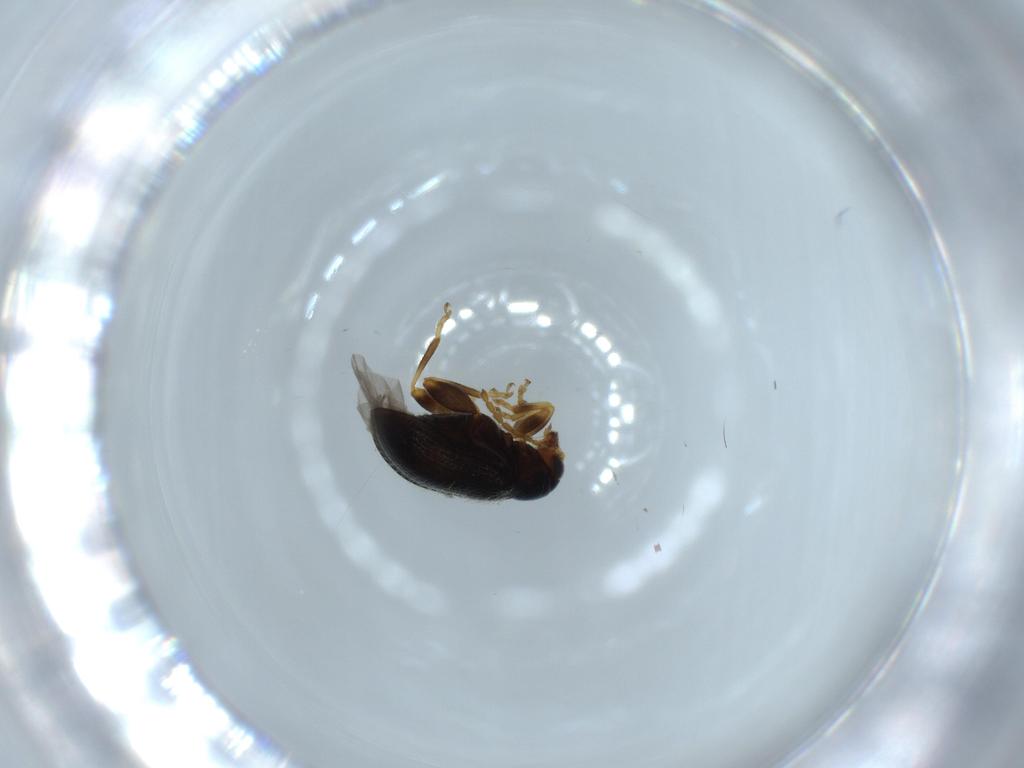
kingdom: Animalia
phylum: Arthropoda
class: Insecta
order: Coleoptera
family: Chrysomelidae
